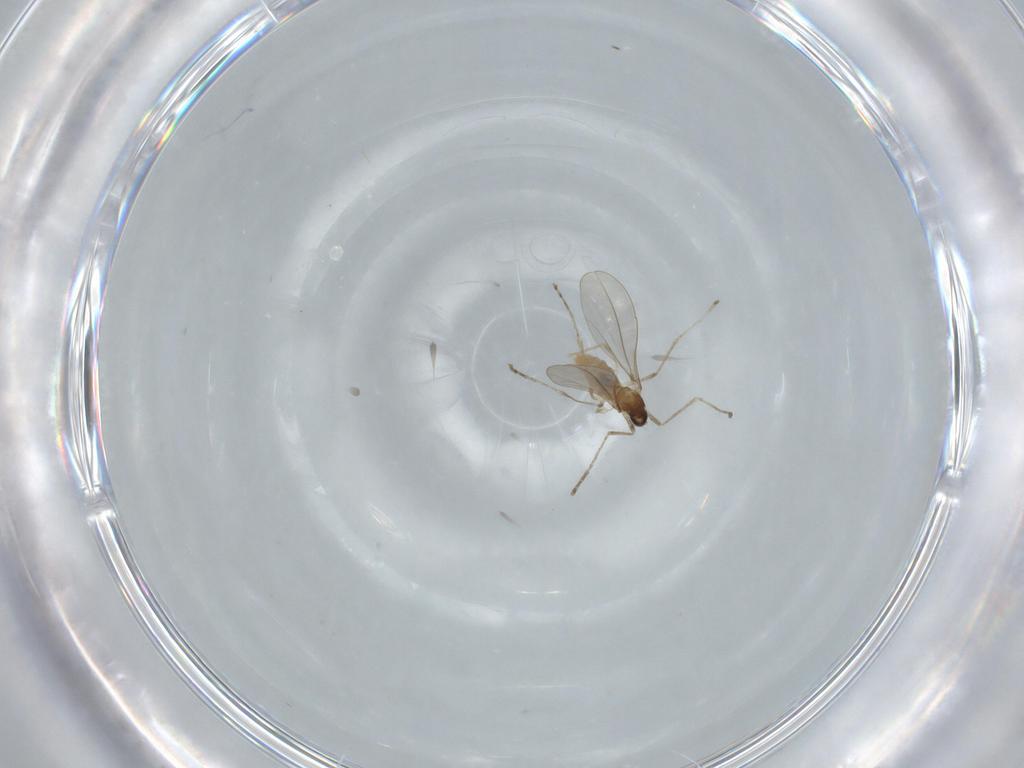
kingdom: Animalia
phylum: Arthropoda
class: Insecta
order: Diptera
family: Cecidomyiidae
